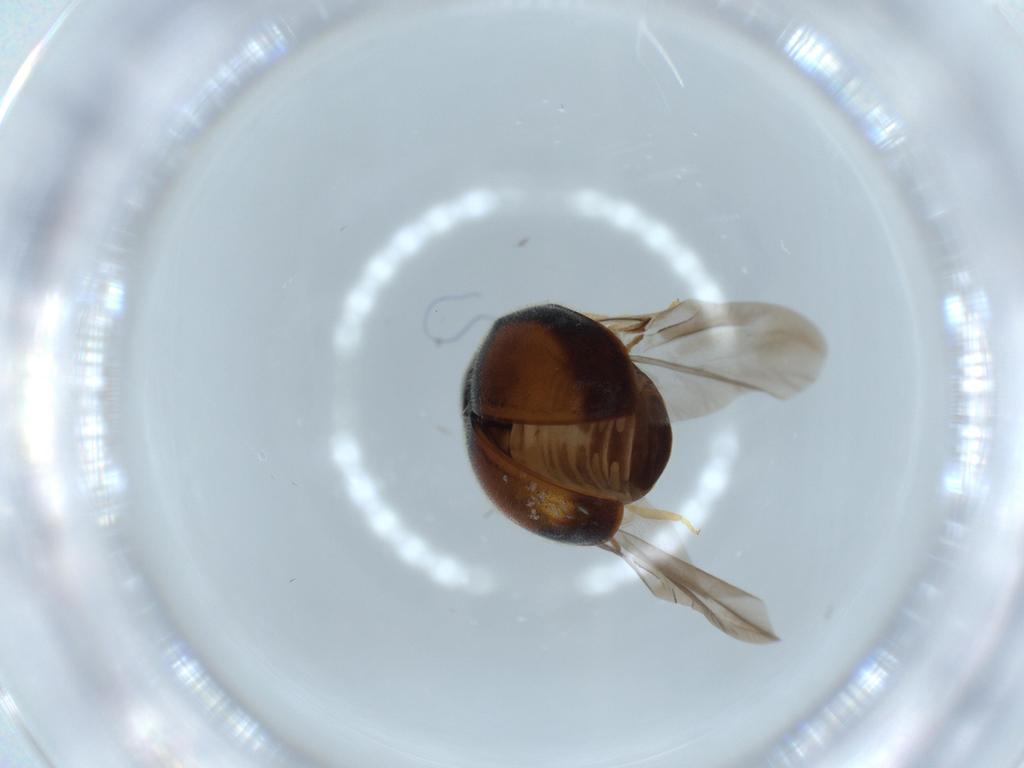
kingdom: Animalia
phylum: Arthropoda
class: Insecta
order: Coleoptera
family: Coccinellidae
